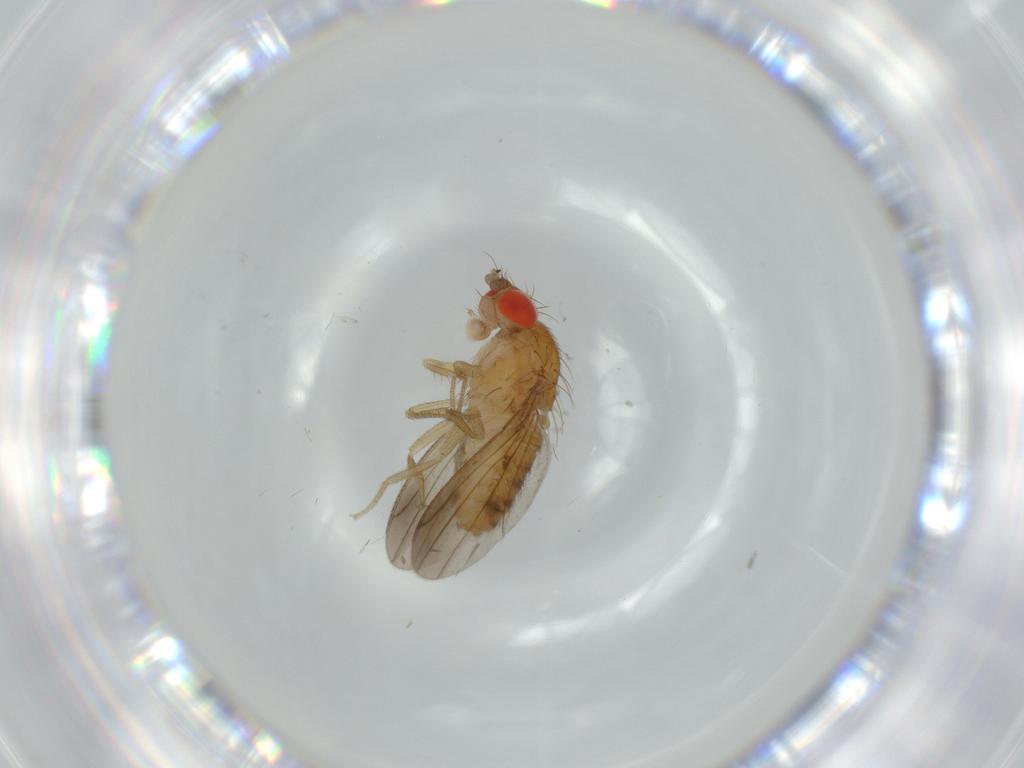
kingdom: Animalia
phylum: Arthropoda
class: Insecta
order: Diptera
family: Drosophilidae
